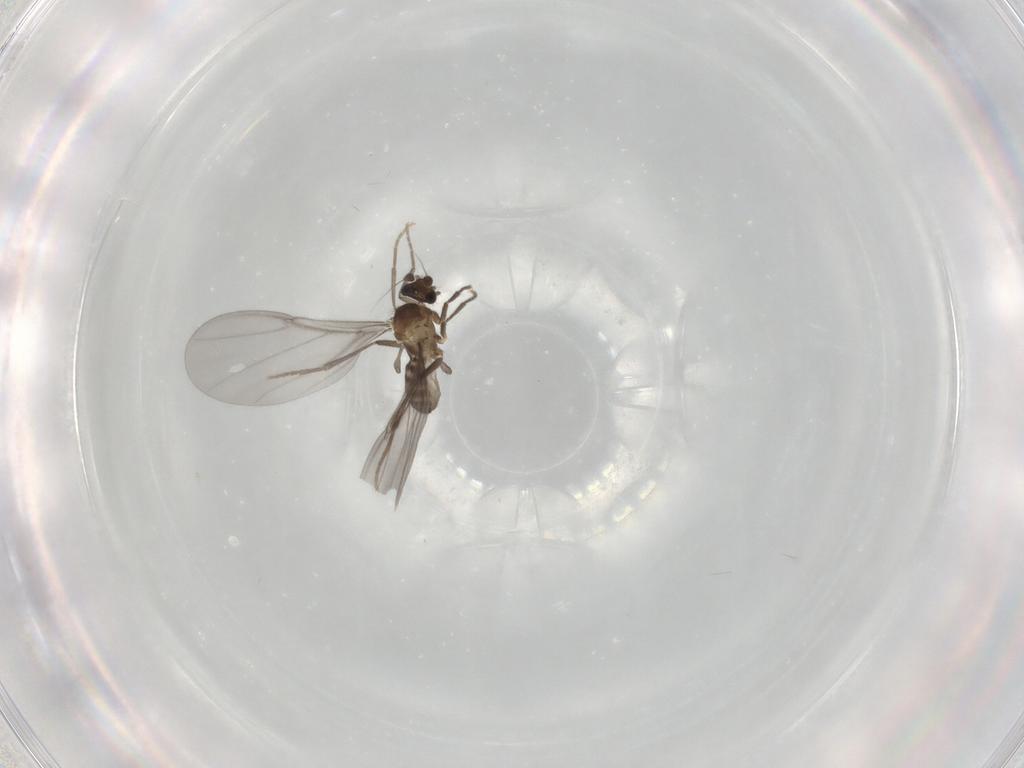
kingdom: Animalia
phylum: Arthropoda
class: Insecta
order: Diptera
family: Phoridae
